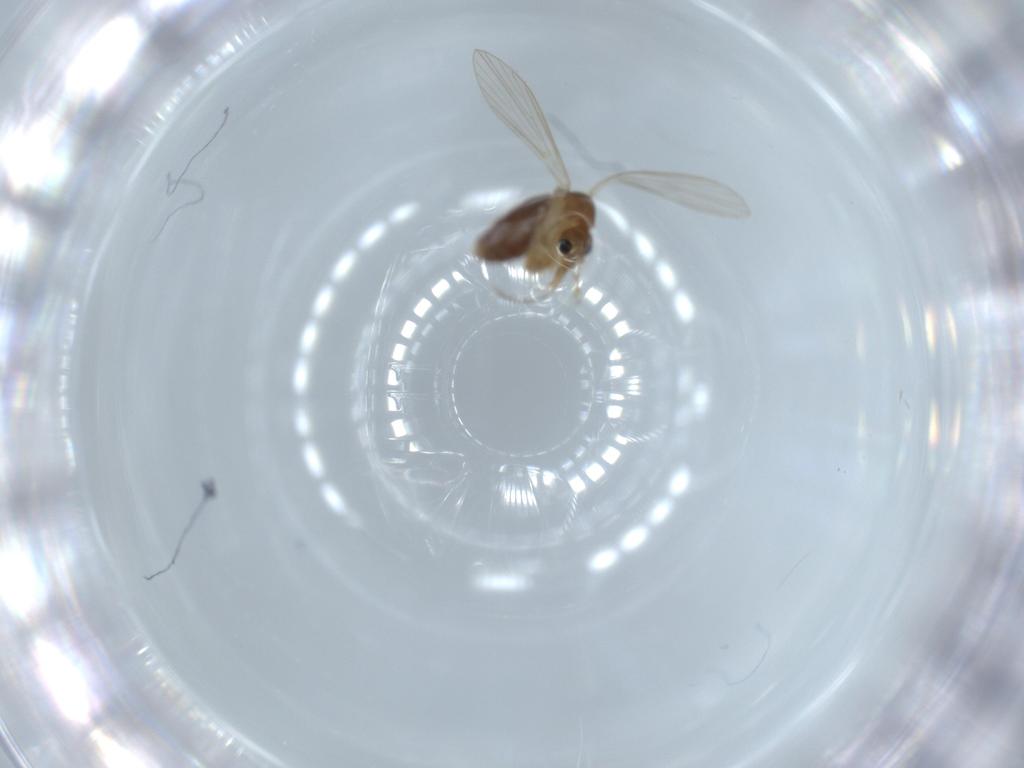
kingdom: Animalia
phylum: Arthropoda
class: Insecta
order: Diptera
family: Psychodidae
